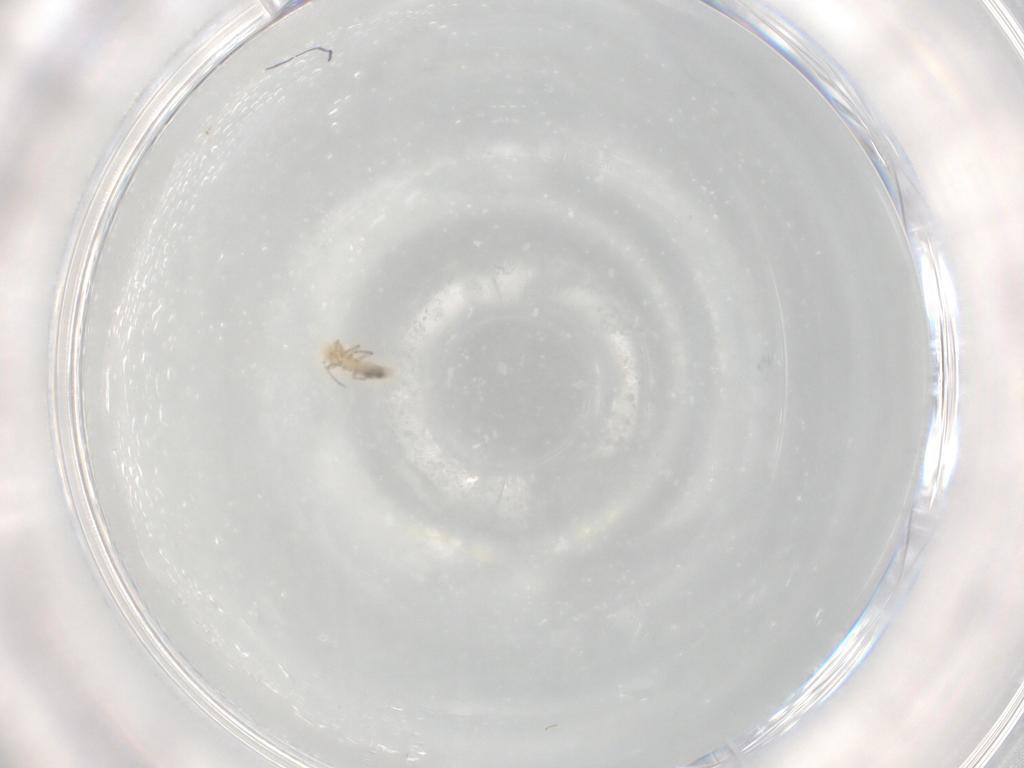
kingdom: Animalia
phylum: Arthropoda
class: Insecta
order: Psocodea
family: Caeciliusidae
